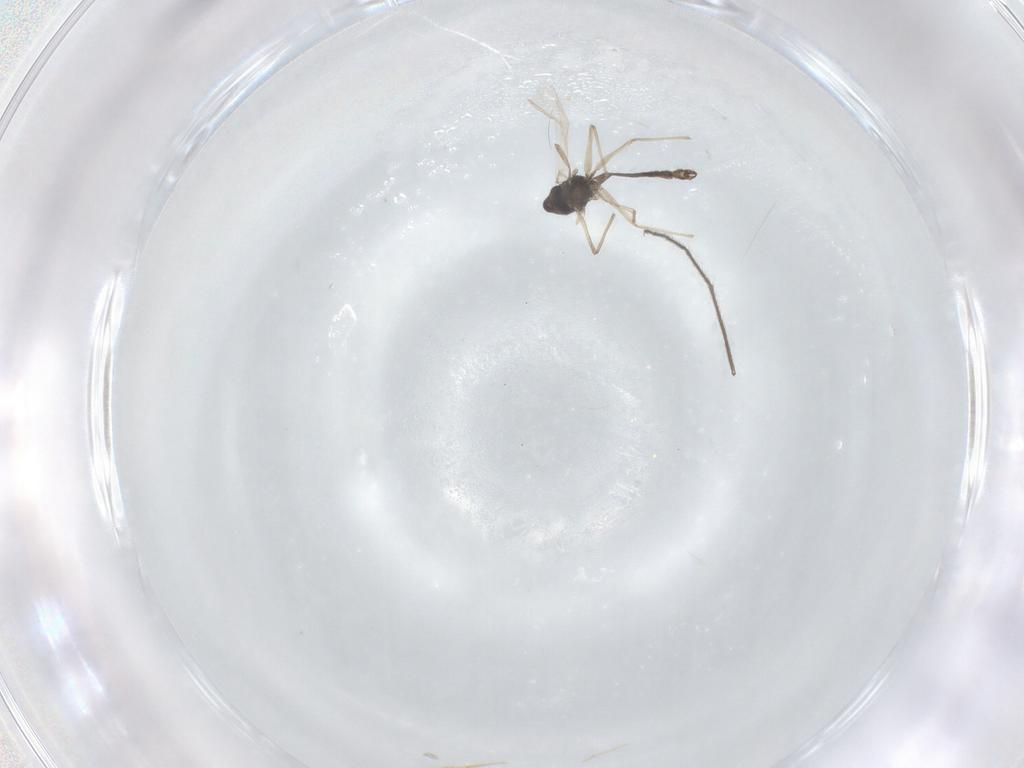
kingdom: Animalia
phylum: Arthropoda
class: Insecta
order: Diptera
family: Chironomidae
